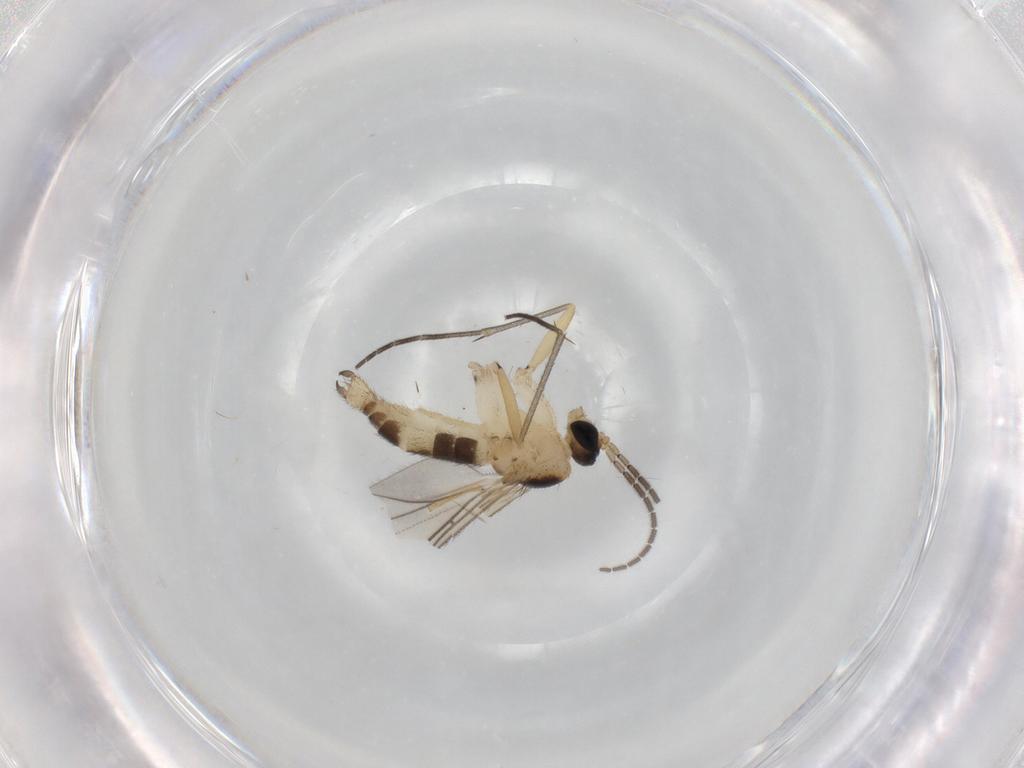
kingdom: Animalia
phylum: Arthropoda
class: Insecta
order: Diptera
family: Sciaridae
